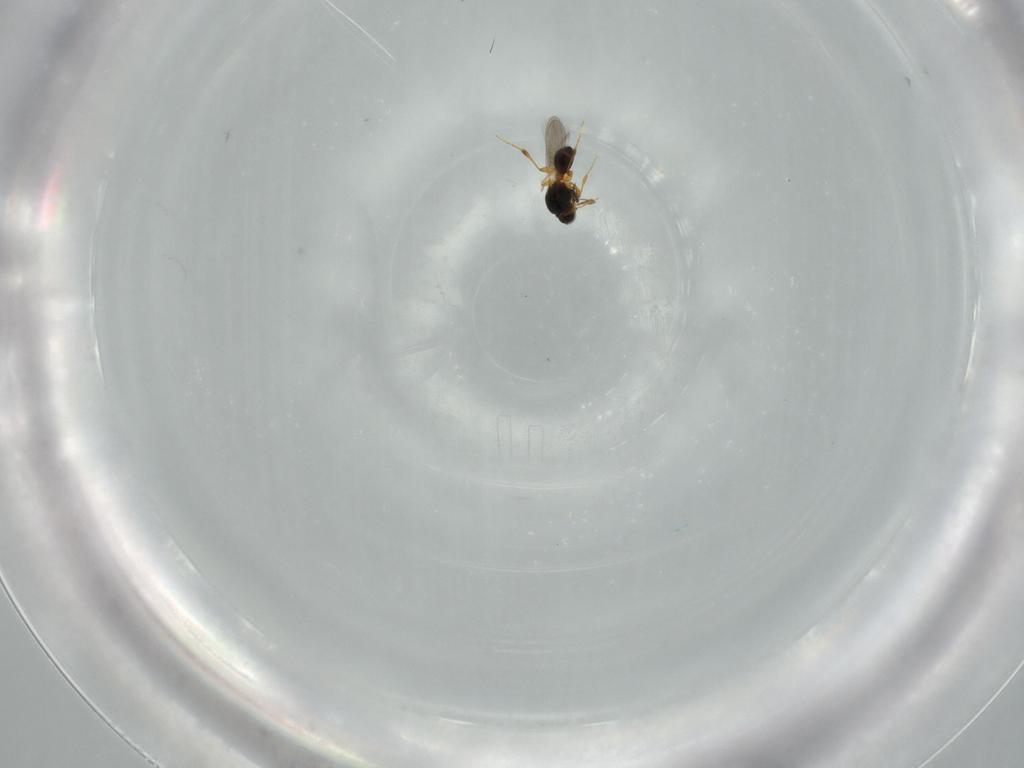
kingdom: Animalia
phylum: Arthropoda
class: Insecta
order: Hymenoptera
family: Platygastridae
